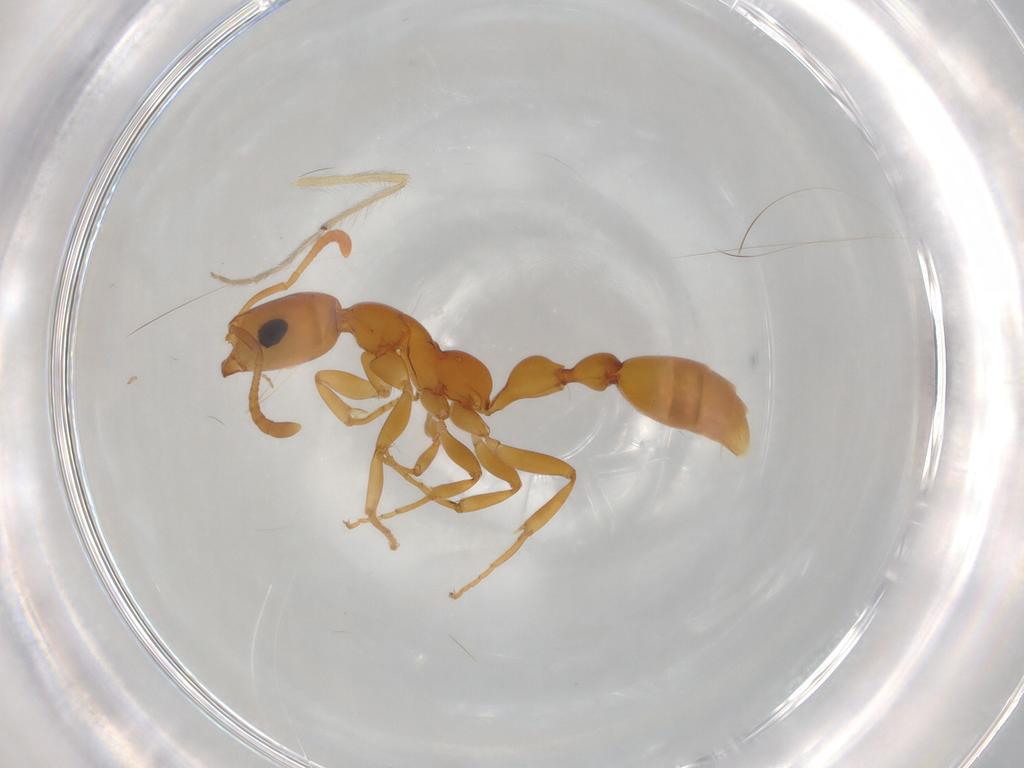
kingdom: Animalia
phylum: Arthropoda
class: Insecta
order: Hymenoptera
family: Formicidae
